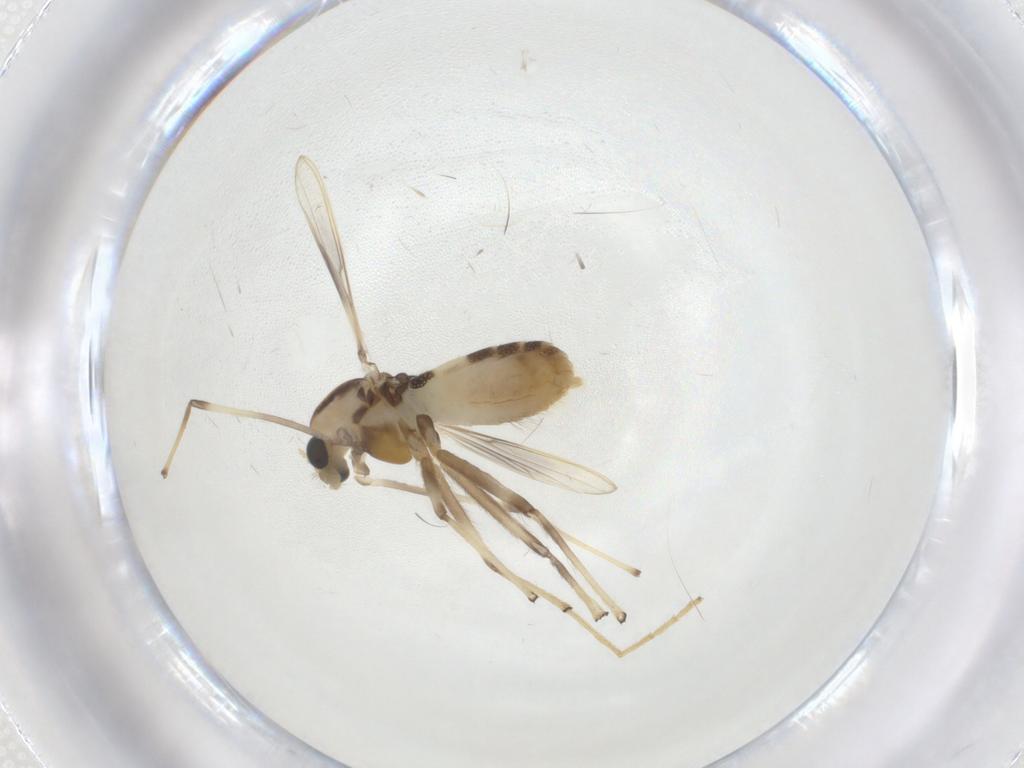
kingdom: Animalia
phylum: Arthropoda
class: Insecta
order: Diptera
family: Chironomidae
